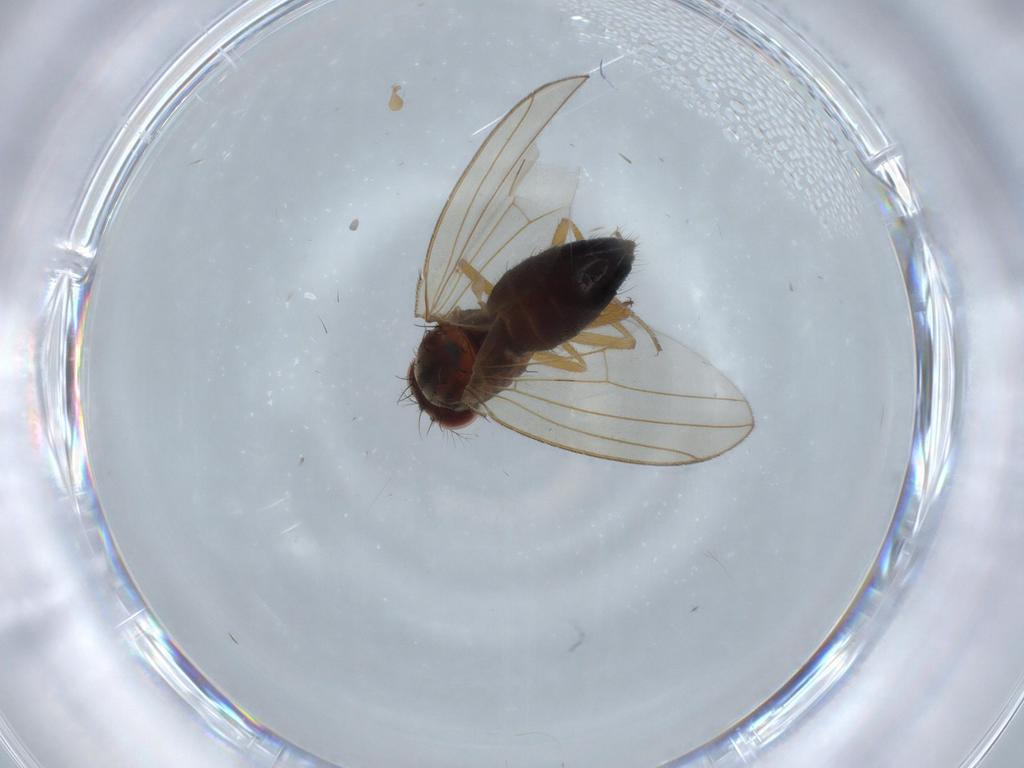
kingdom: Animalia
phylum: Arthropoda
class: Insecta
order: Diptera
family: Drosophilidae
